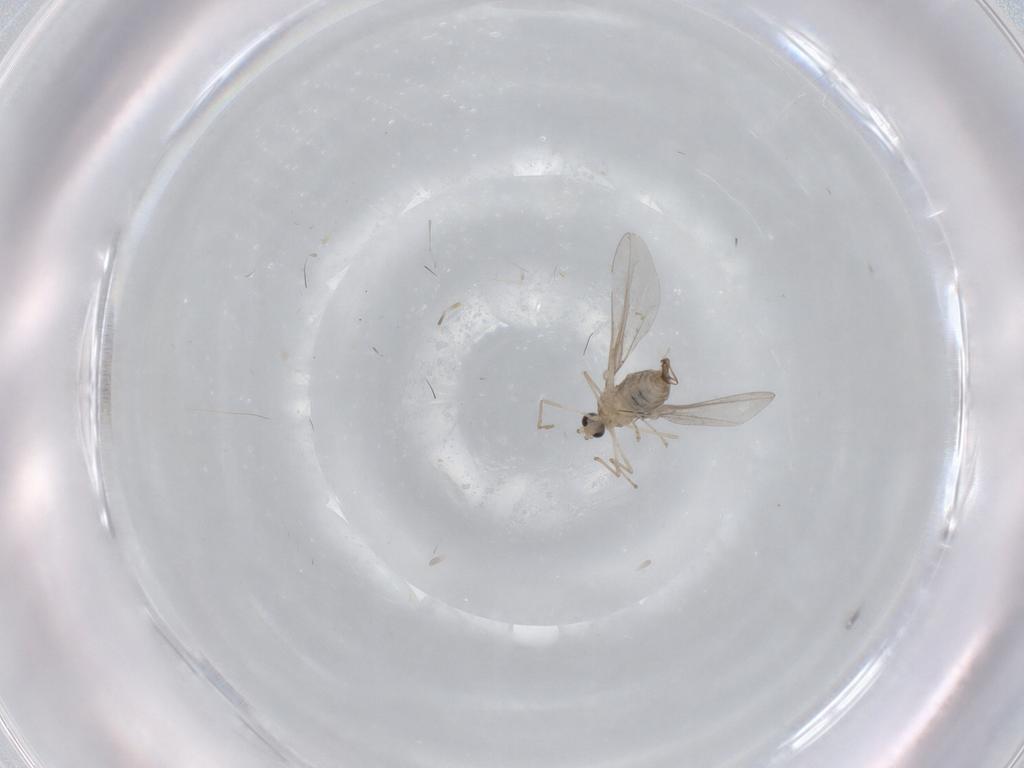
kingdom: Animalia
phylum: Arthropoda
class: Insecta
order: Diptera
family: Cecidomyiidae
